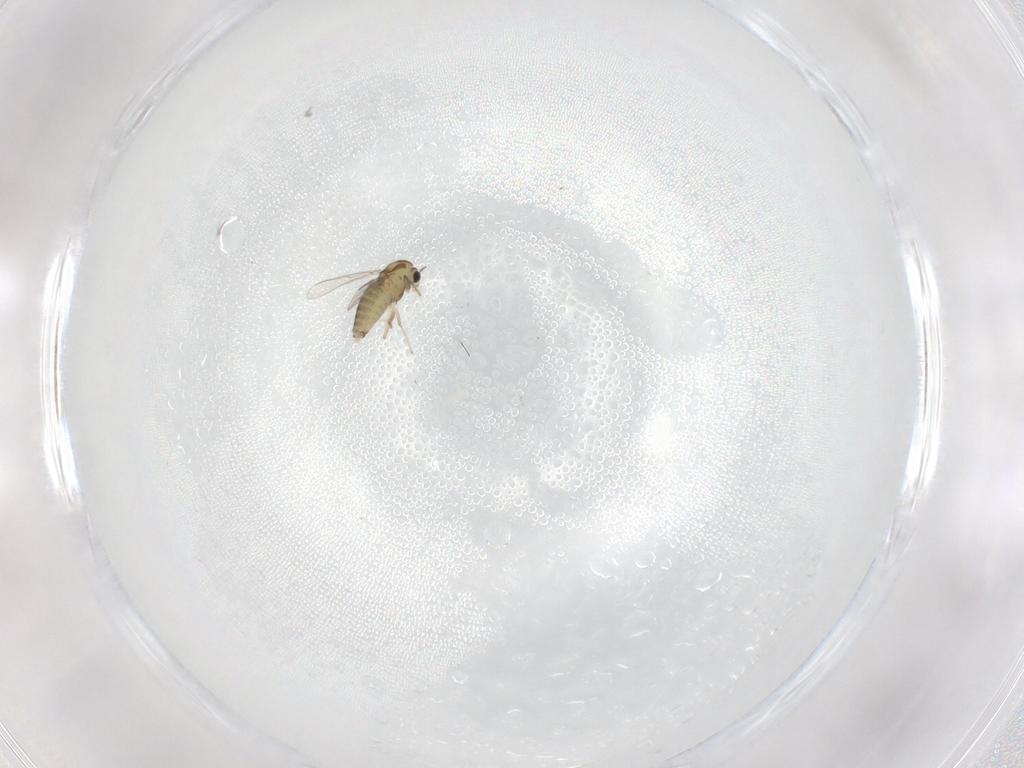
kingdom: Animalia
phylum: Arthropoda
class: Insecta
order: Diptera
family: Chironomidae
